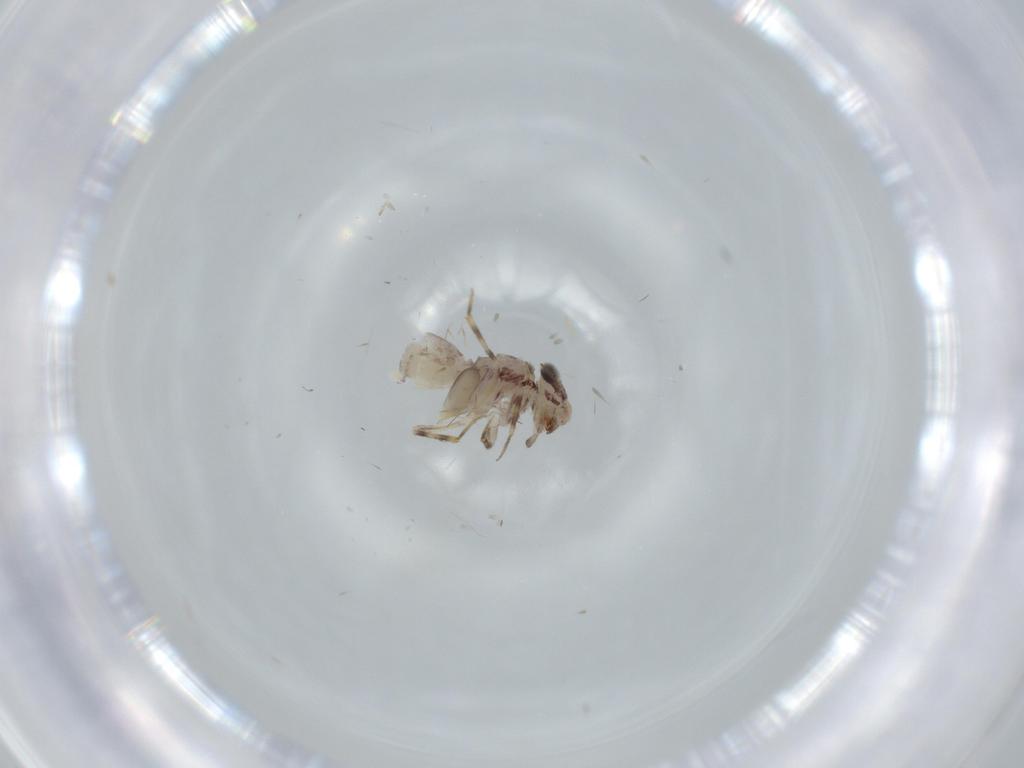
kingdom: Animalia
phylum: Arthropoda
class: Insecta
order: Psocodea
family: Lepidopsocidae
